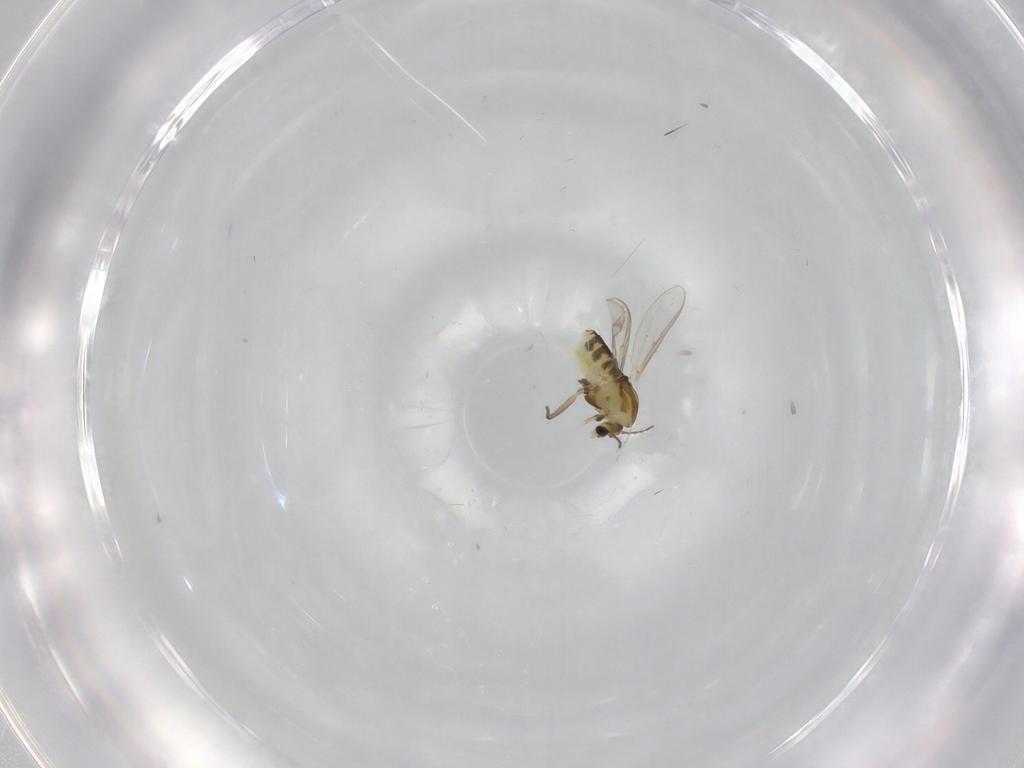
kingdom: Animalia
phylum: Arthropoda
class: Insecta
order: Diptera
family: Chironomidae
